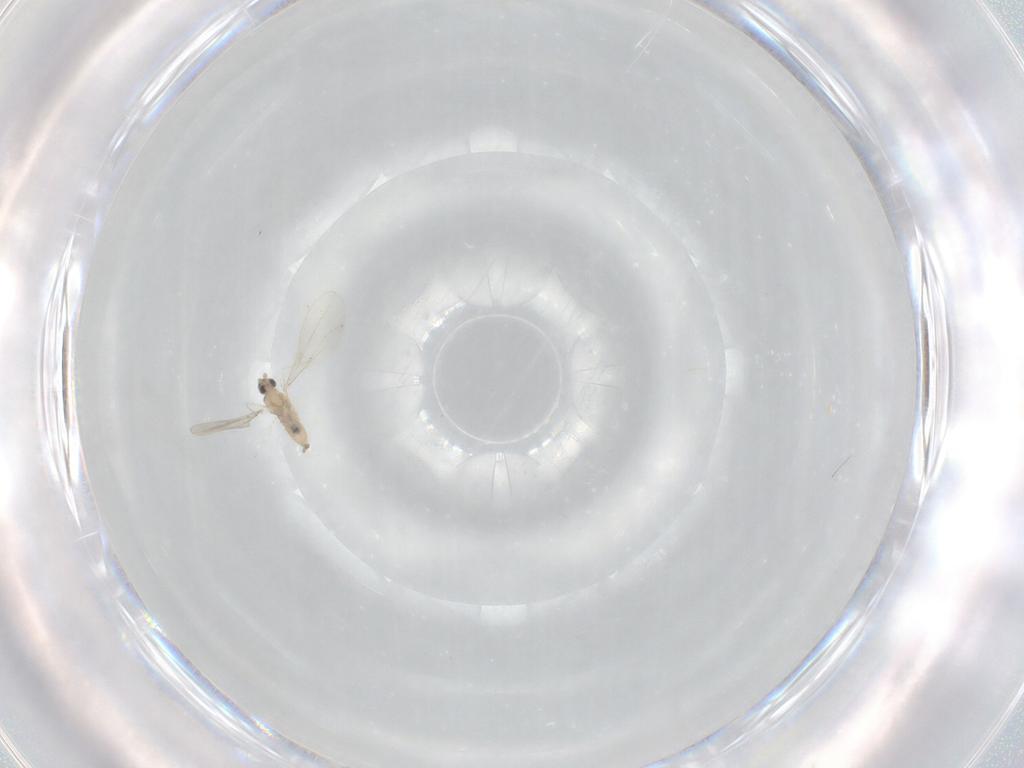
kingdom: Animalia
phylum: Arthropoda
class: Insecta
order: Diptera
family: Cecidomyiidae
